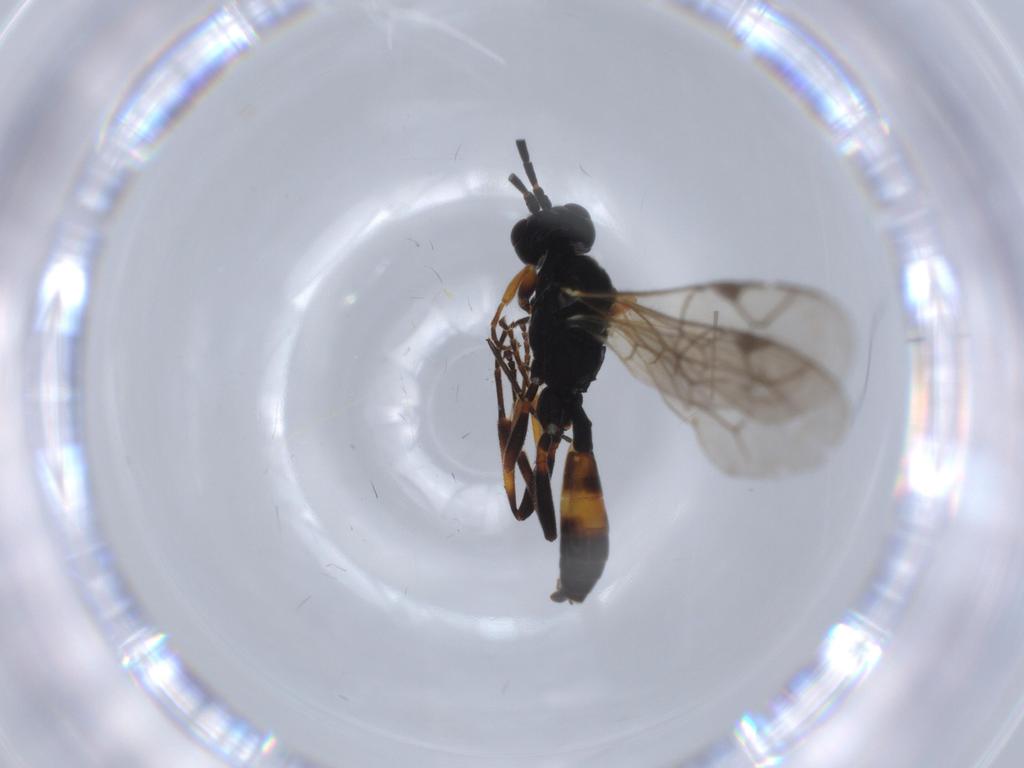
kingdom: Animalia
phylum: Arthropoda
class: Insecta
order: Hymenoptera
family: Ichneumonidae
